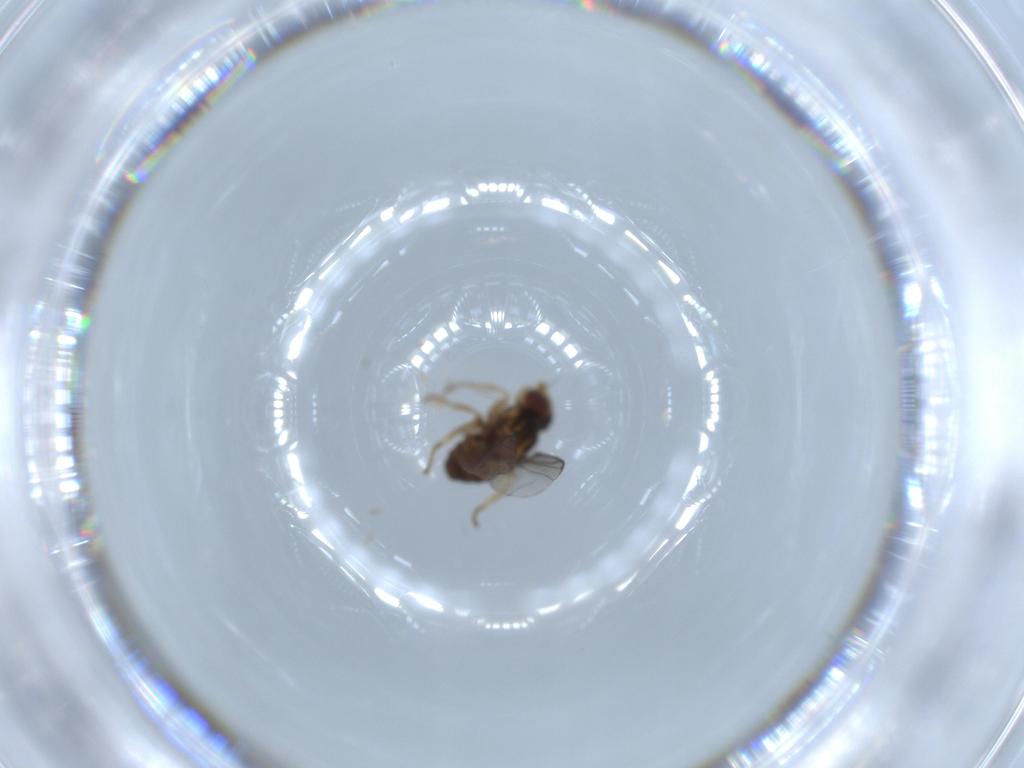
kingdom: Animalia
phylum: Arthropoda
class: Insecta
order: Diptera
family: Chloropidae
